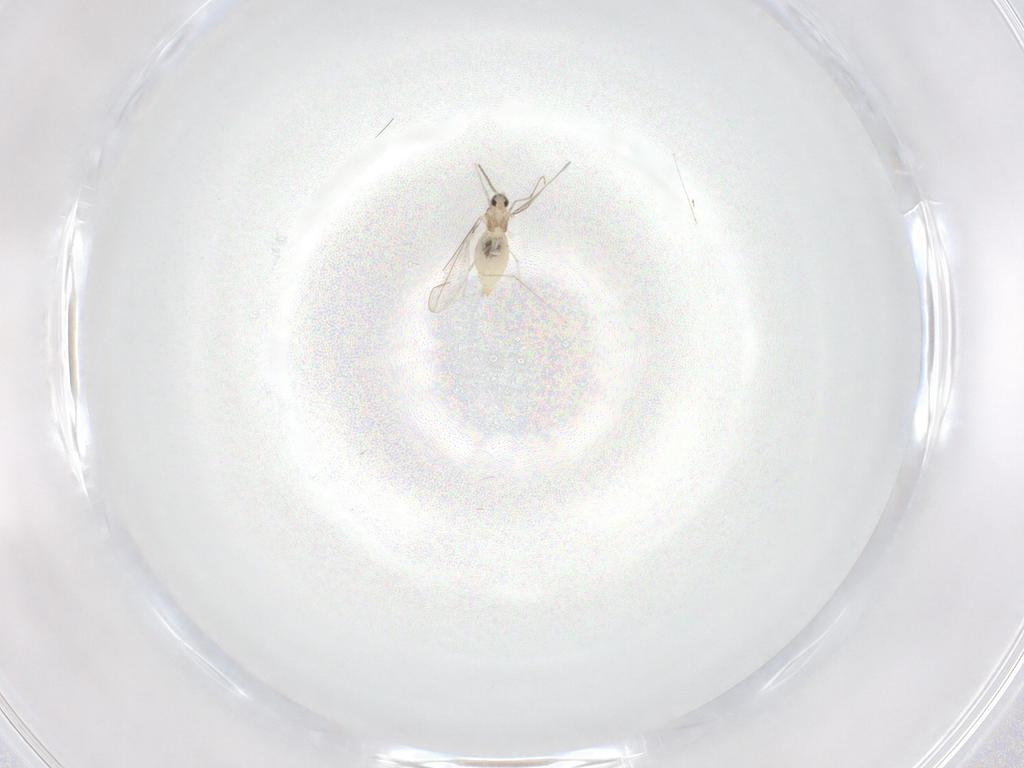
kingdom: Animalia
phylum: Arthropoda
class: Insecta
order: Diptera
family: Cecidomyiidae
